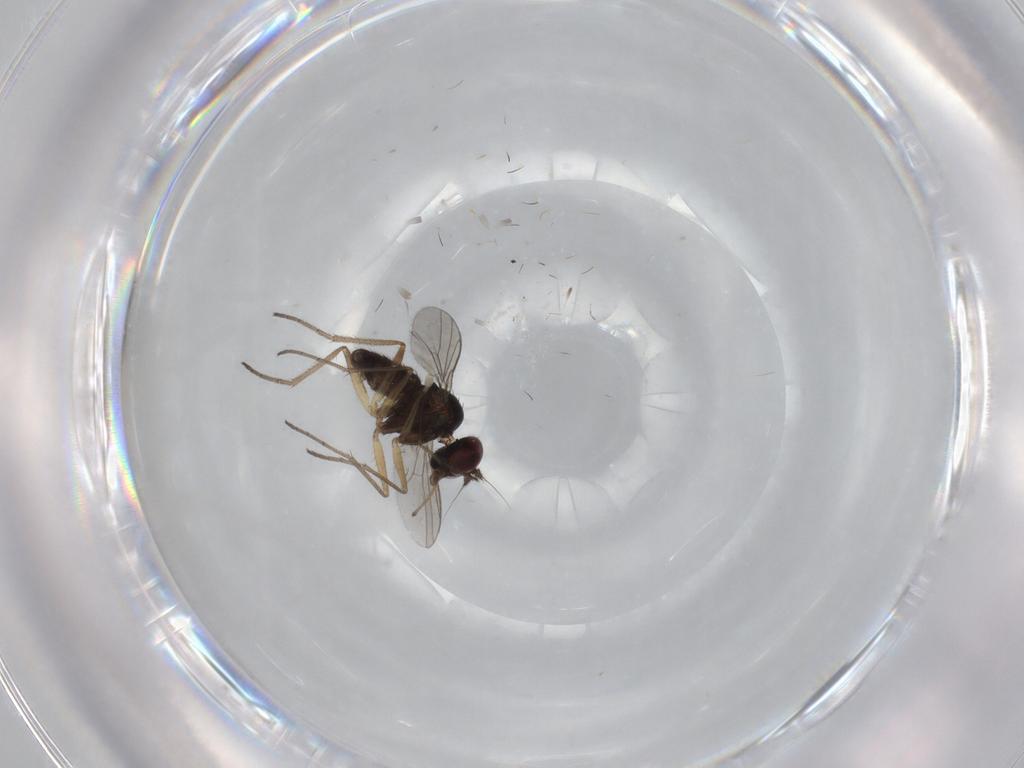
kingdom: Animalia
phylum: Arthropoda
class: Insecta
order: Diptera
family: Dolichopodidae
